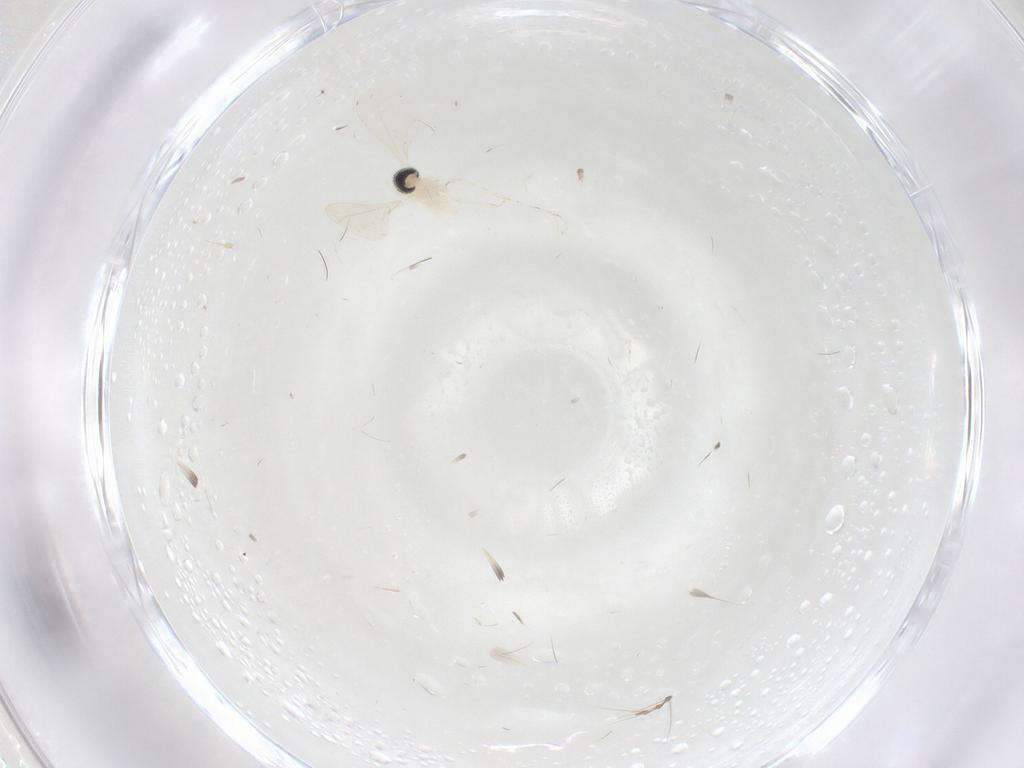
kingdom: Animalia
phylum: Arthropoda
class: Insecta
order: Diptera
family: Cecidomyiidae
